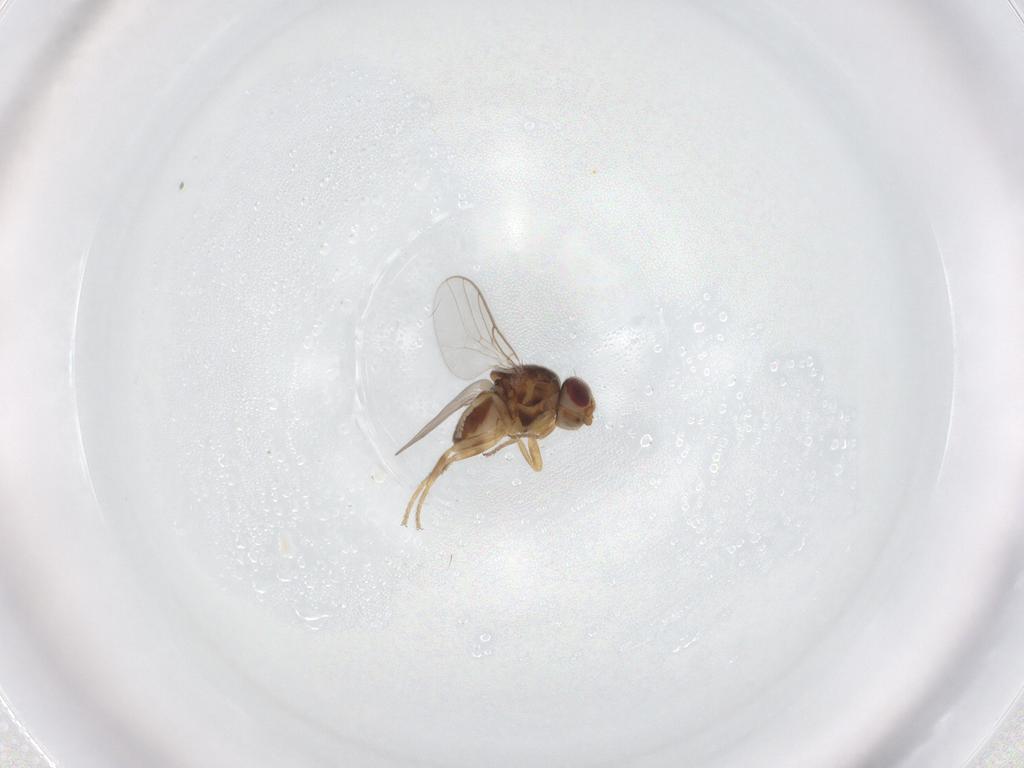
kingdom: Animalia
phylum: Arthropoda
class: Insecta
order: Diptera
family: Chloropidae
